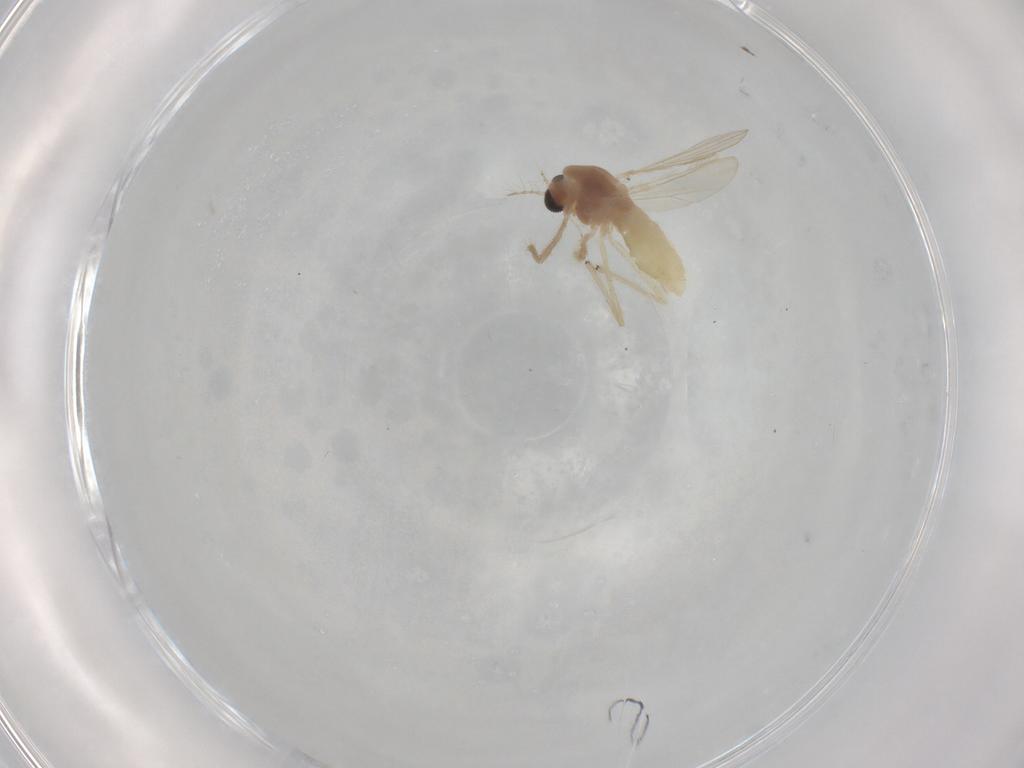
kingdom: Animalia
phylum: Arthropoda
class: Insecta
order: Diptera
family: Chironomidae
